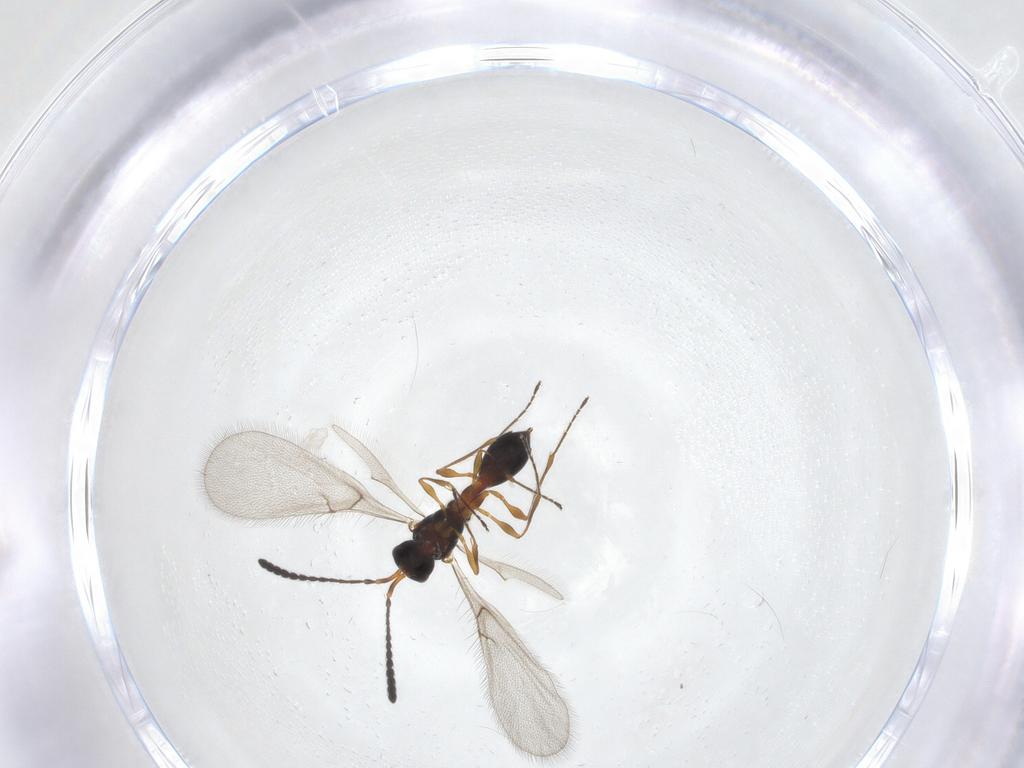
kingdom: Animalia
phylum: Arthropoda
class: Insecta
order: Hymenoptera
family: Diapriidae
